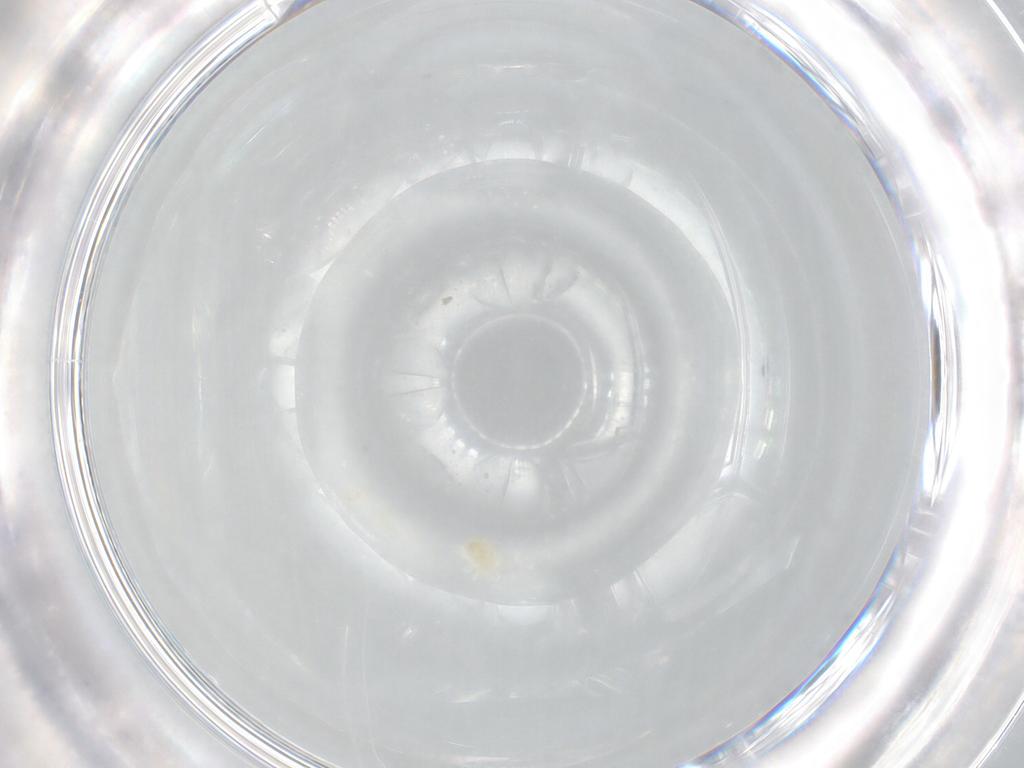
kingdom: Animalia
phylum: Arthropoda
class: Arachnida
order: Trombidiformes
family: Eupodidae
